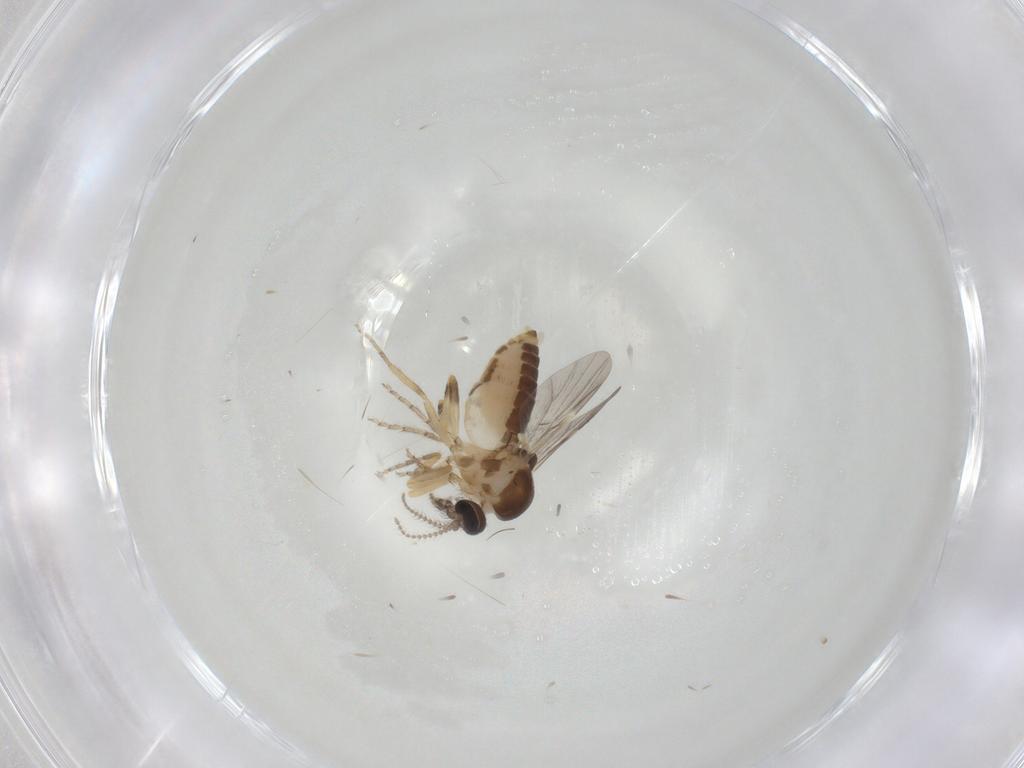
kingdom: Animalia
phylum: Arthropoda
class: Insecta
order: Diptera
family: Ceratopogonidae
